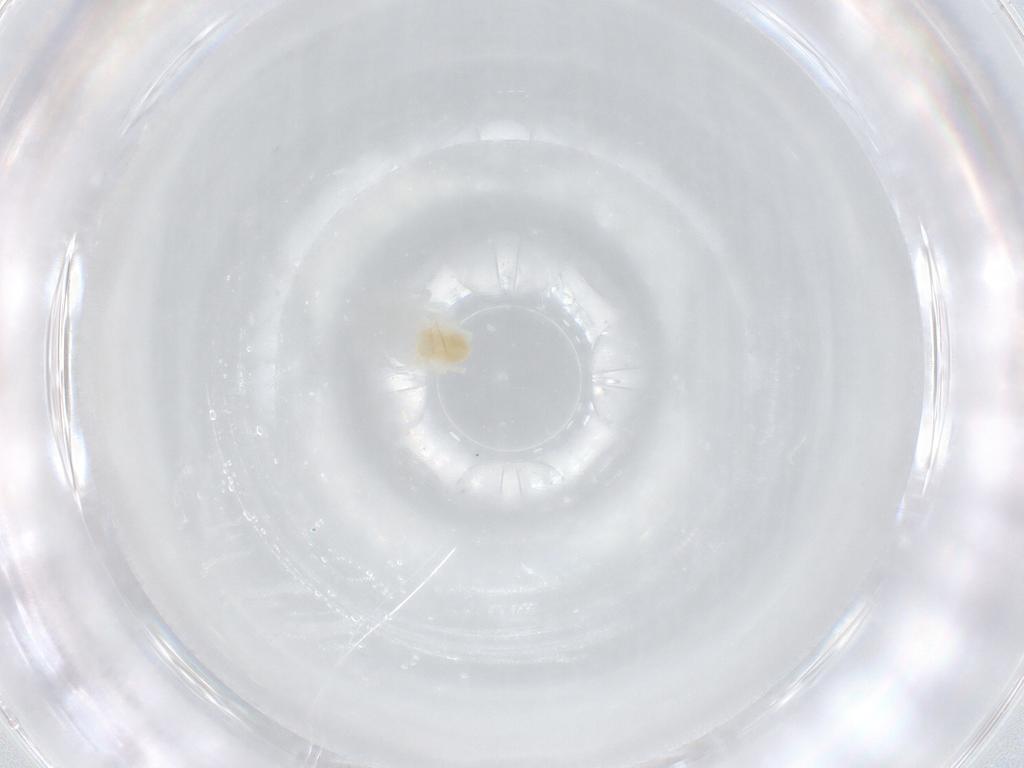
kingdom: Animalia
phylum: Arthropoda
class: Arachnida
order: Trombidiformes
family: Anystidae
